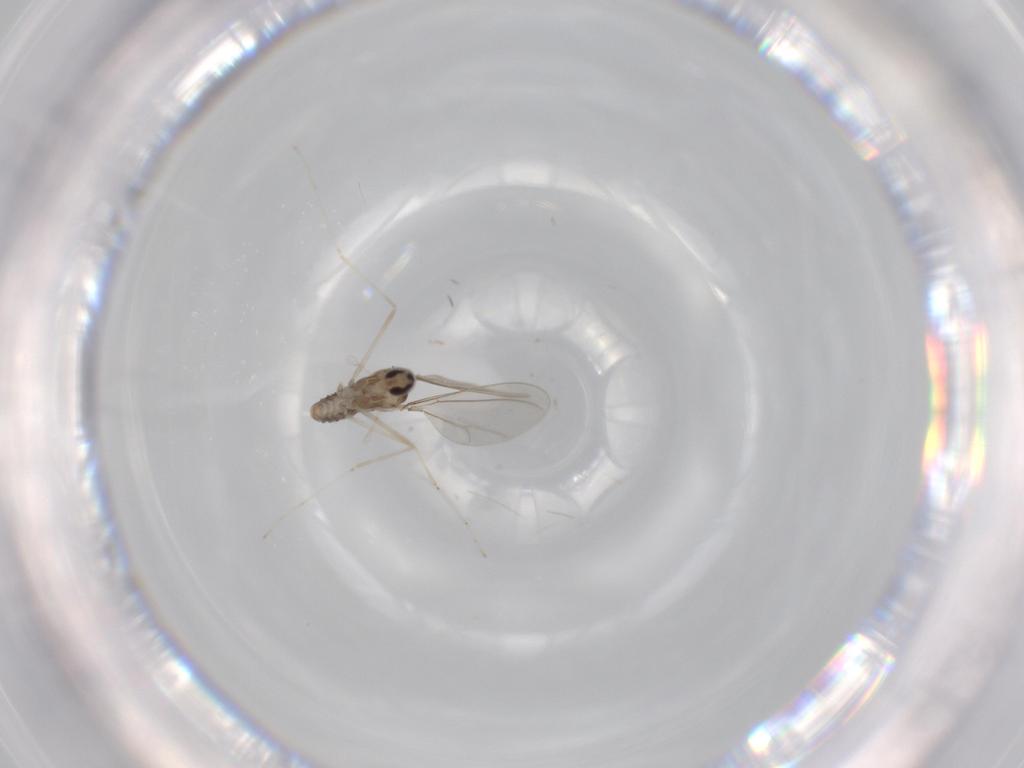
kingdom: Animalia
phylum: Arthropoda
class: Insecta
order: Diptera
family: Cecidomyiidae
